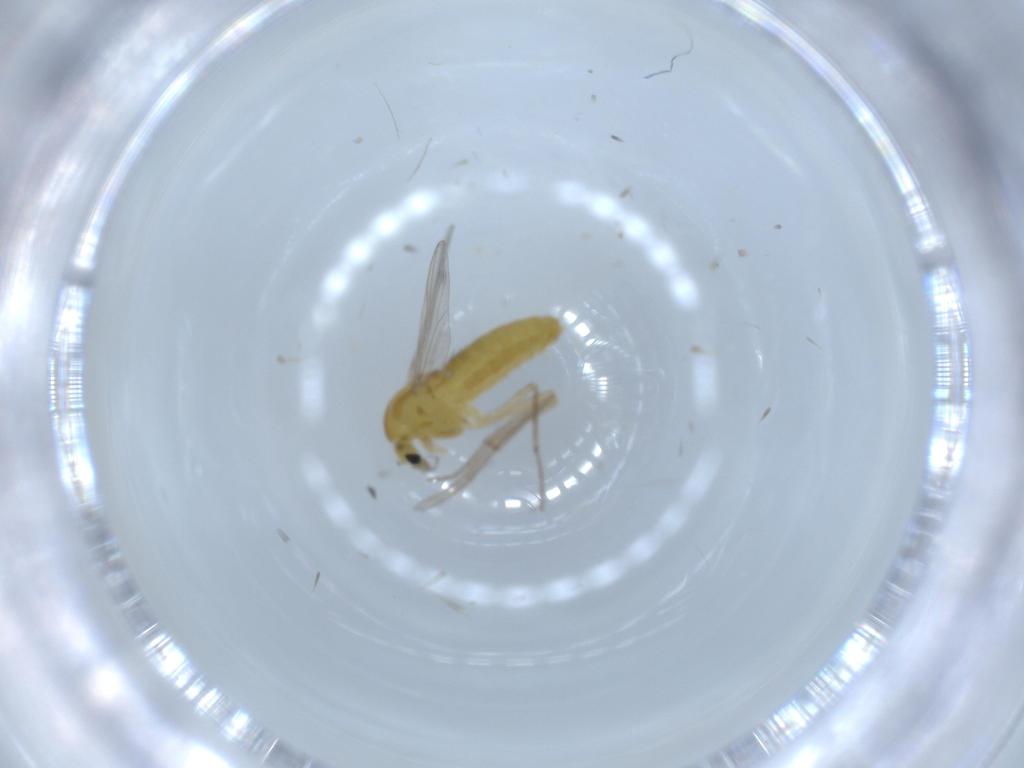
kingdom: Animalia
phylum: Arthropoda
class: Insecta
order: Diptera
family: Chironomidae
